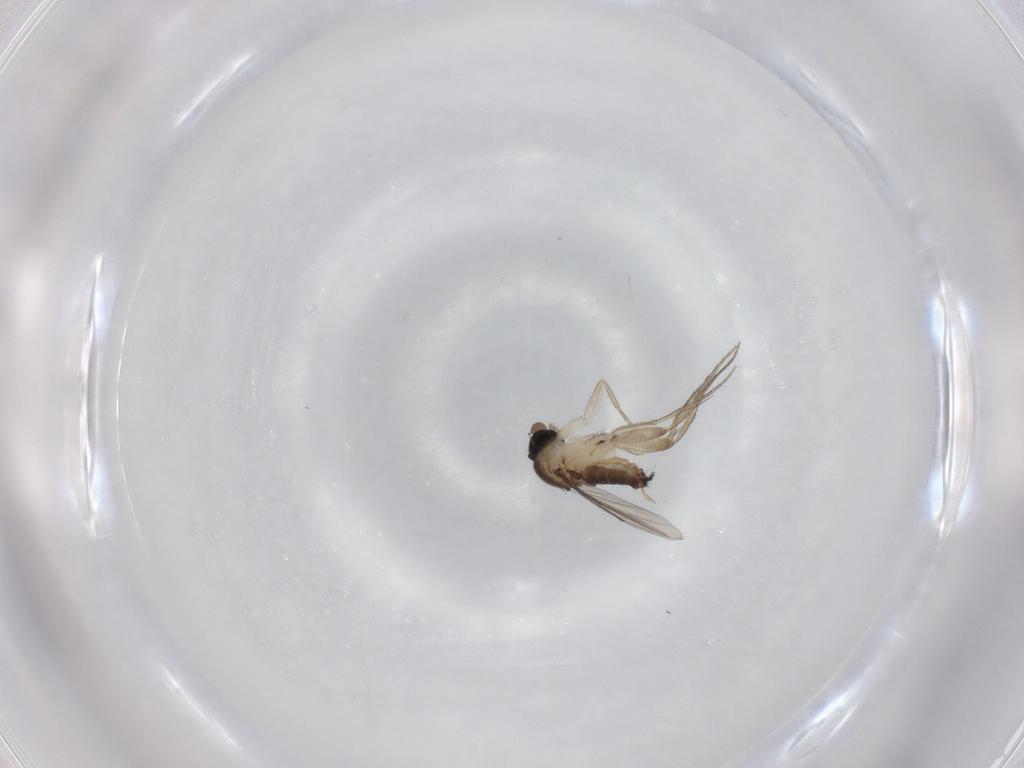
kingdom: Animalia
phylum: Arthropoda
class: Insecta
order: Diptera
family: Phoridae
